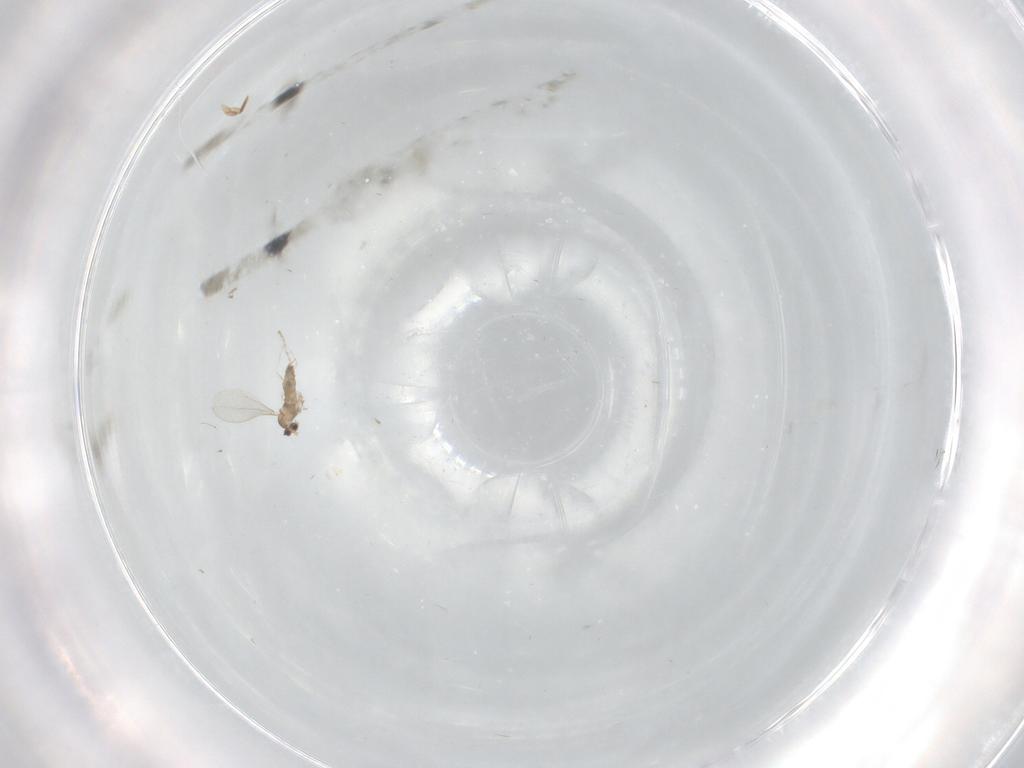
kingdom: Animalia
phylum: Arthropoda
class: Insecta
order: Diptera
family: Cecidomyiidae
